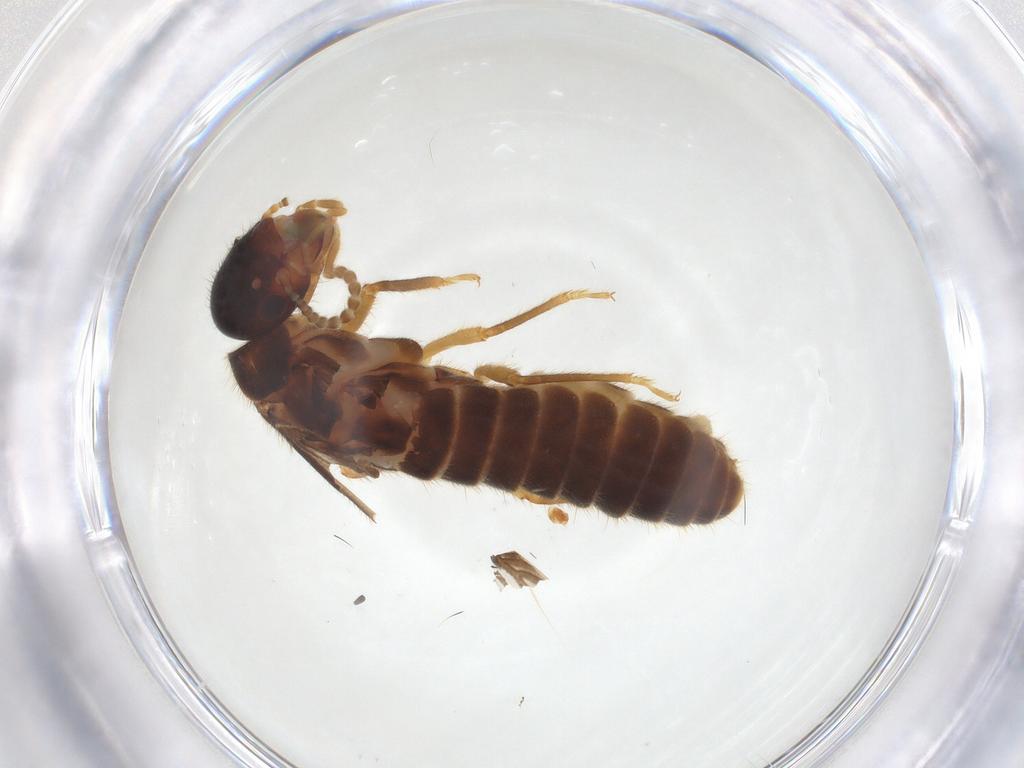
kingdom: Animalia
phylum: Arthropoda
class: Insecta
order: Blattodea
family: Termitidae
